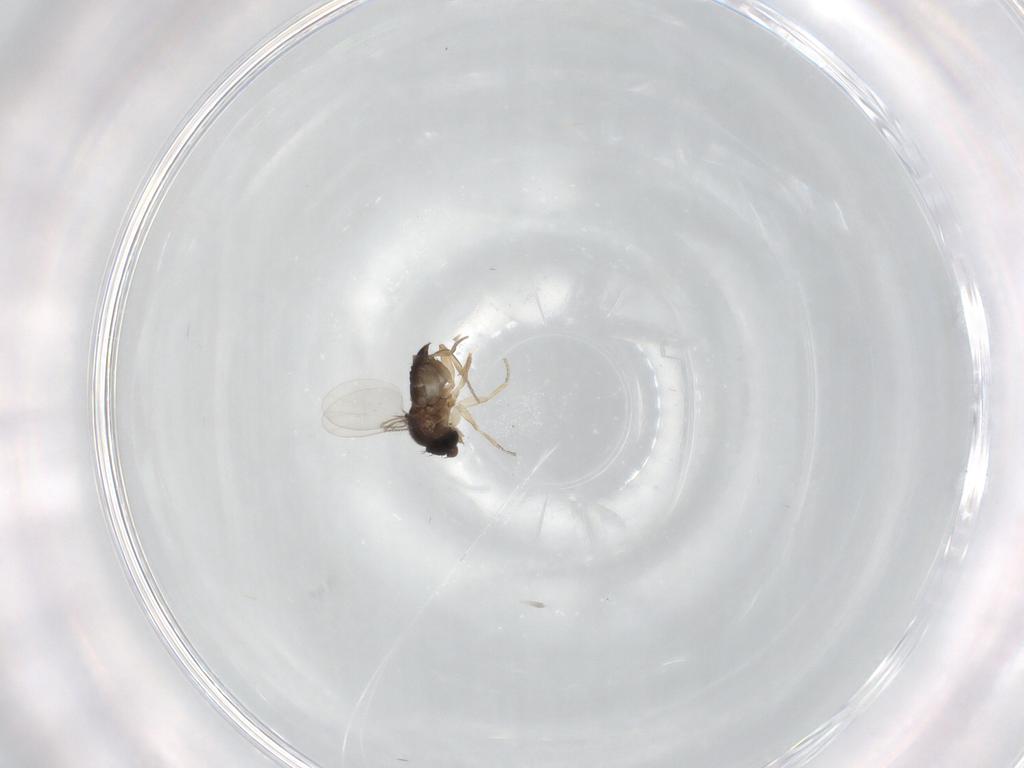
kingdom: Animalia
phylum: Arthropoda
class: Insecta
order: Diptera
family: Phoridae
